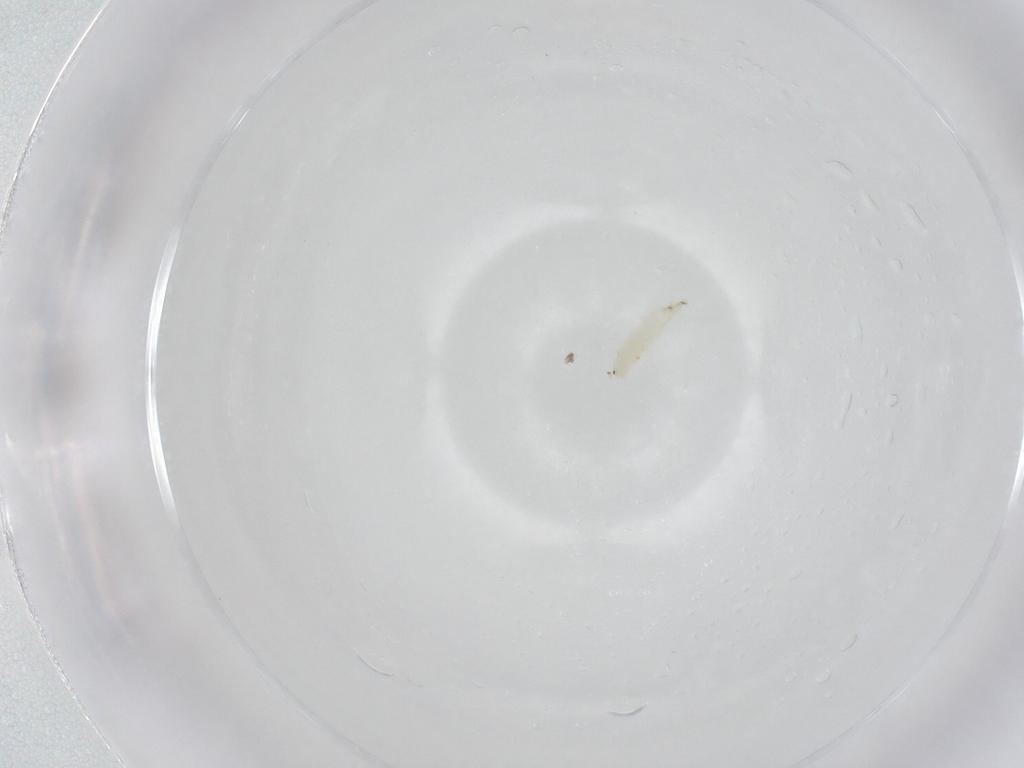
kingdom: Animalia
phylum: Arthropoda
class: Insecta
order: Diptera
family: Sarcophagidae
